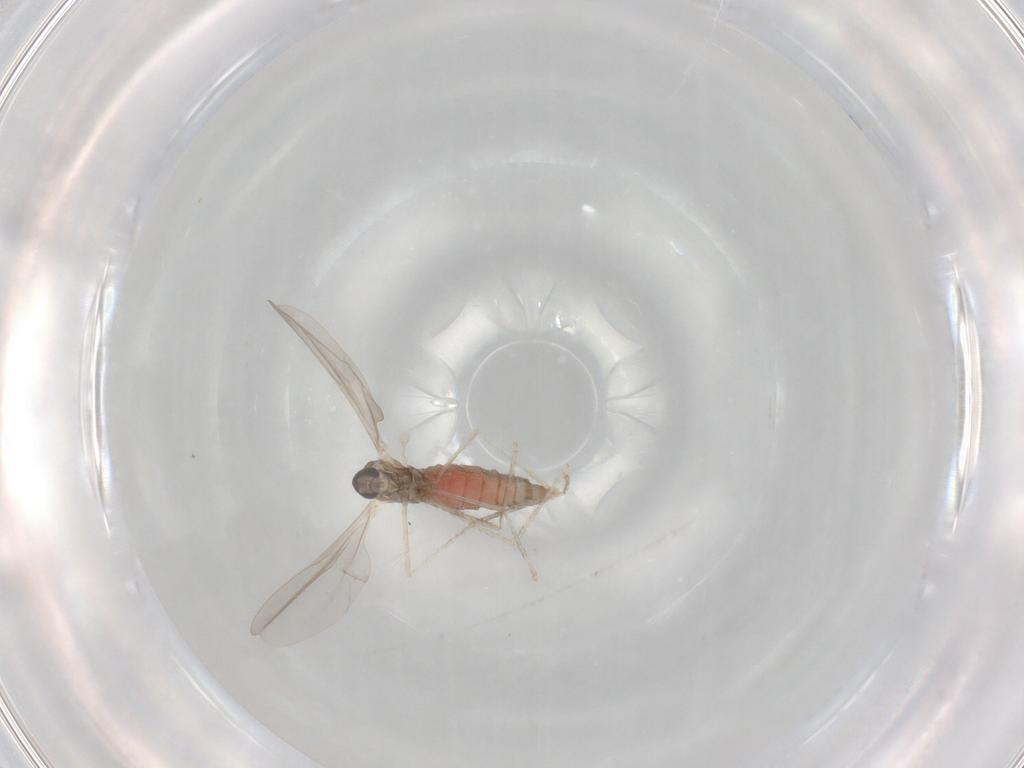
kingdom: Animalia
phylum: Arthropoda
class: Insecta
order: Diptera
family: Cecidomyiidae
